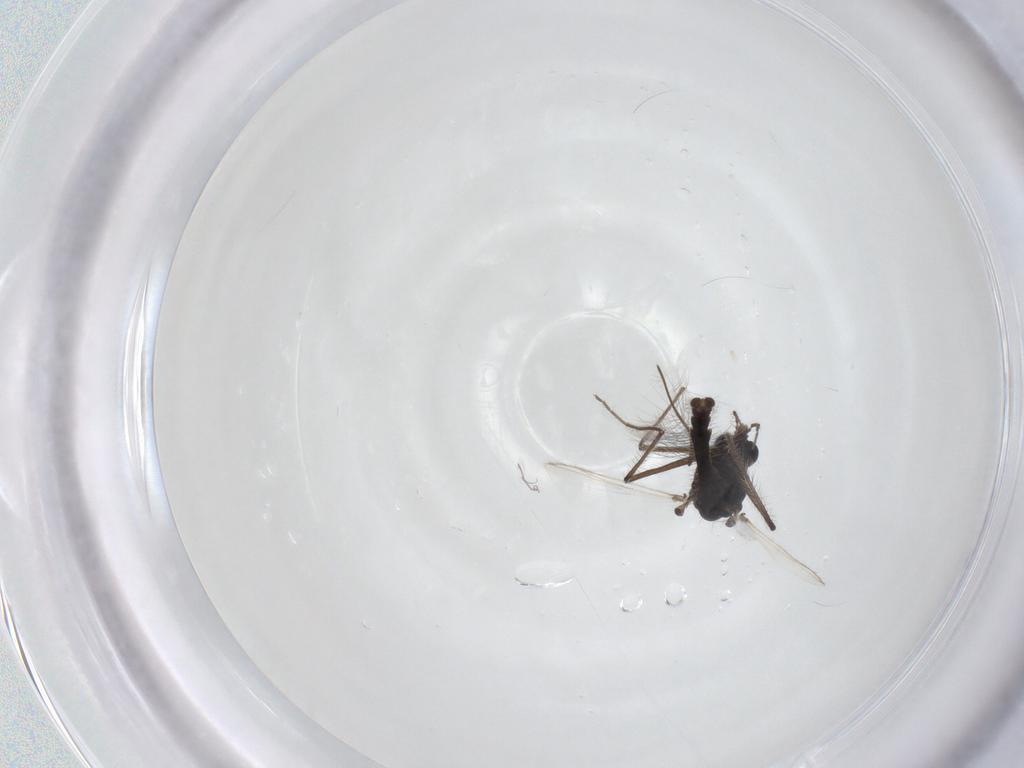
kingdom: Animalia
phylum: Arthropoda
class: Insecta
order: Diptera
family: Chironomidae
